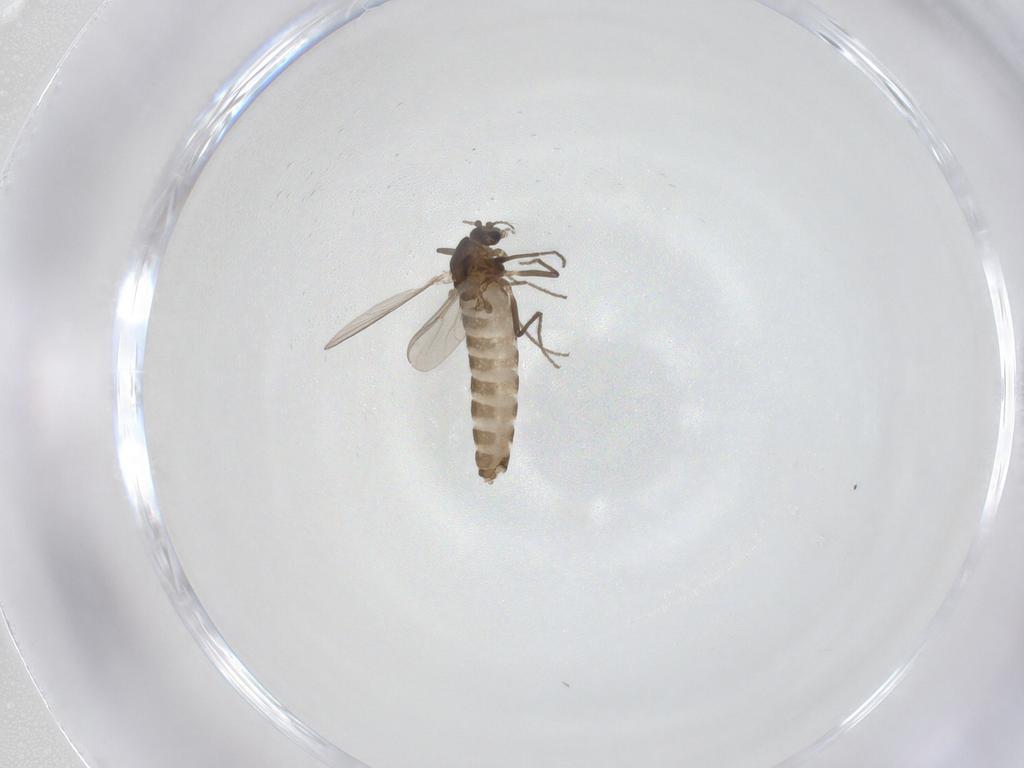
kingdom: Animalia
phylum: Arthropoda
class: Insecta
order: Diptera
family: Chironomidae
